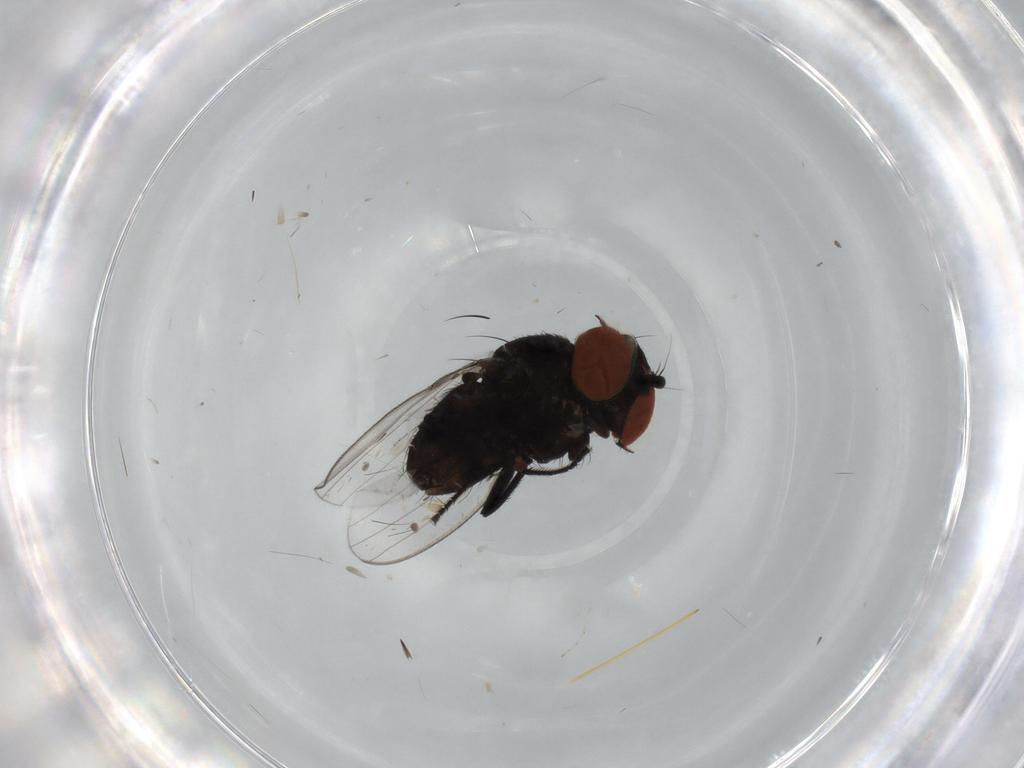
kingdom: Animalia
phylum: Arthropoda
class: Insecta
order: Diptera
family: Milichiidae
